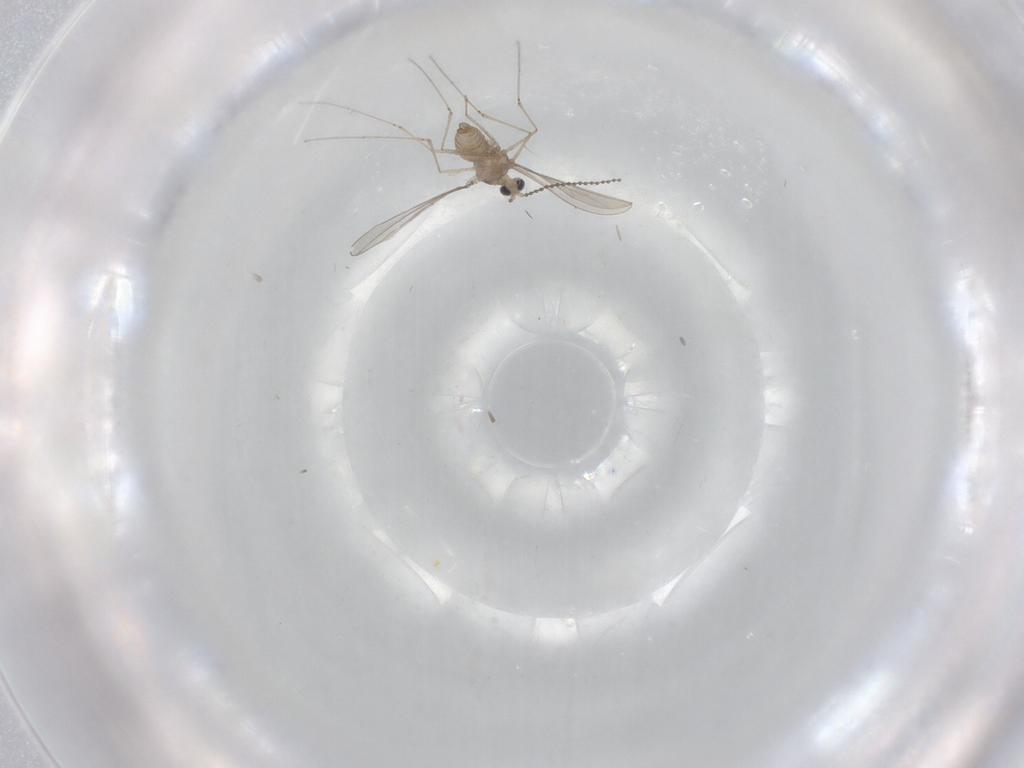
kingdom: Animalia
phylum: Arthropoda
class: Insecta
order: Diptera
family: Cecidomyiidae
